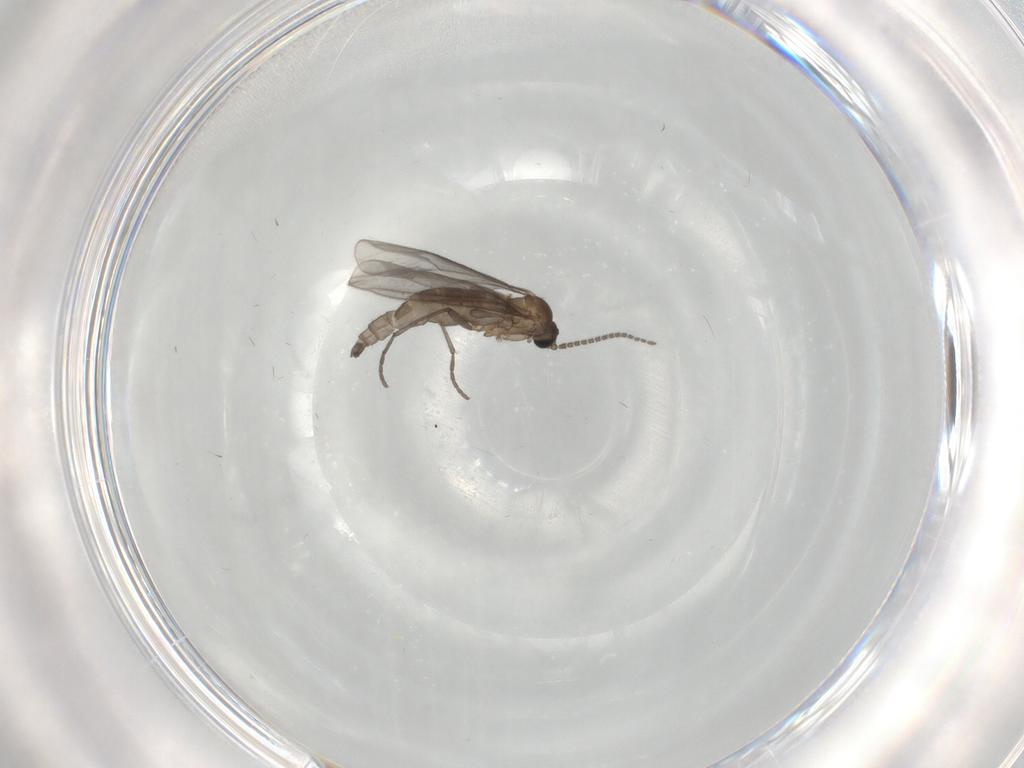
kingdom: Animalia
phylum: Arthropoda
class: Insecta
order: Diptera
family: Sciaridae
